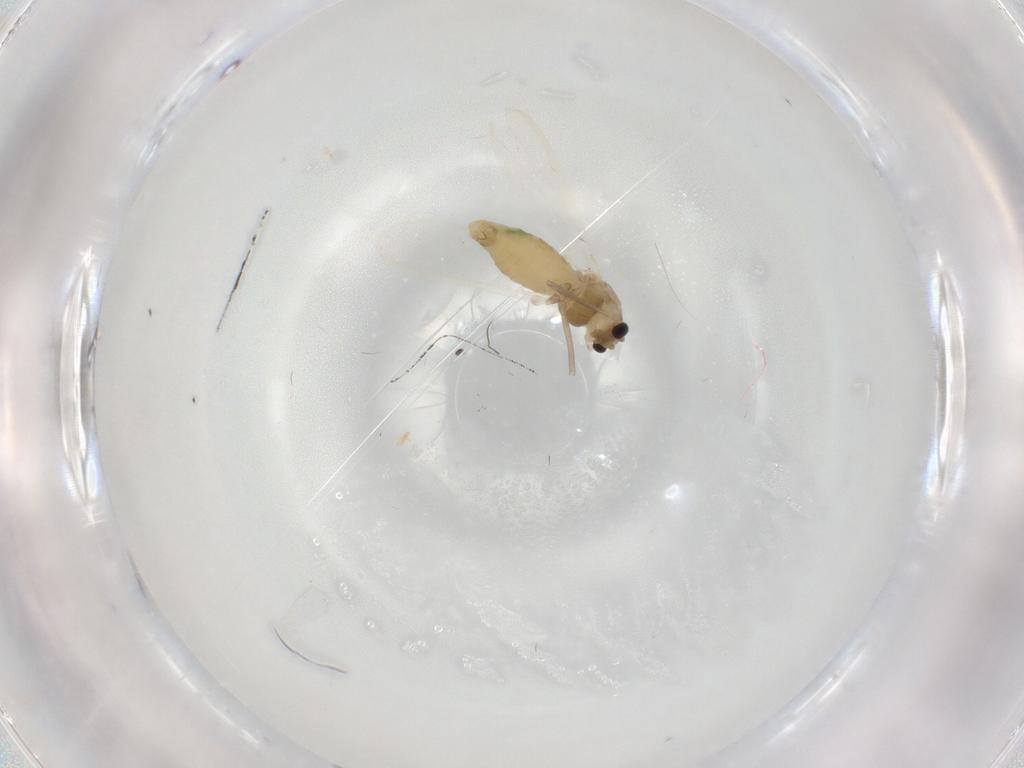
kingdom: Animalia
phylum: Arthropoda
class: Insecta
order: Diptera
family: Chironomidae
